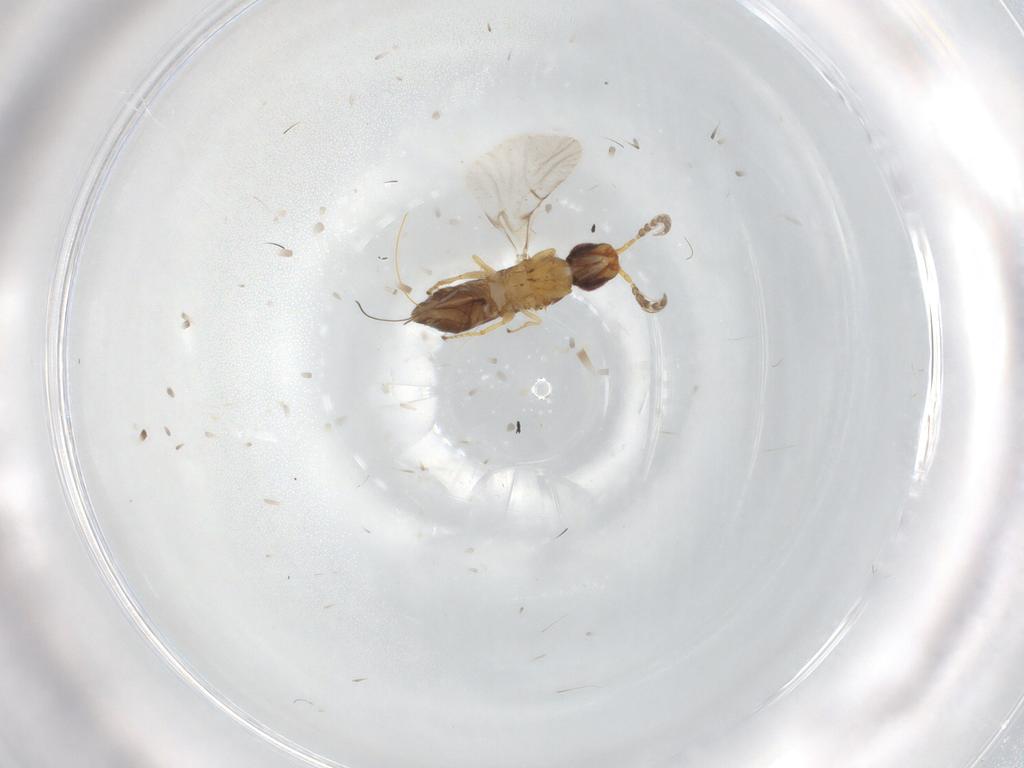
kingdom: Animalia
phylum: Arthropoda
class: Insecta
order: Hymenoptera
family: Agaonidae
